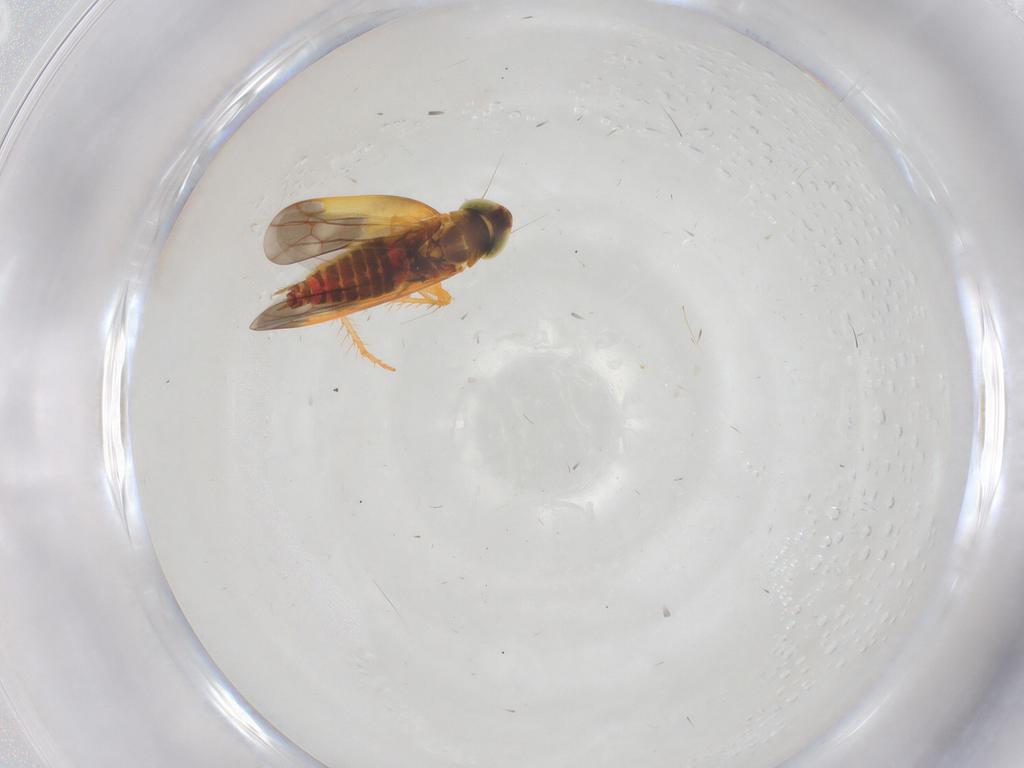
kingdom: Animalia
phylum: Arthropoda
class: Insecta
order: Hemiptera
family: Cicadellidae
